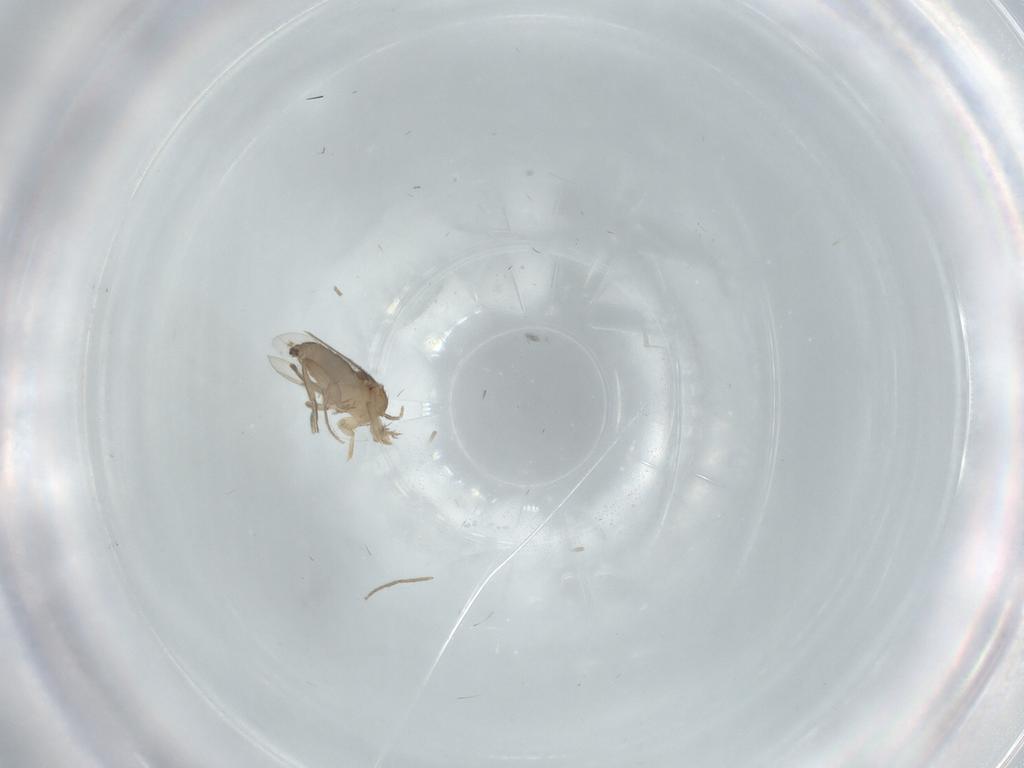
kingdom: Animalia
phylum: Arthropoda
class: Insecta
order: Diptera
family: Phoridae
